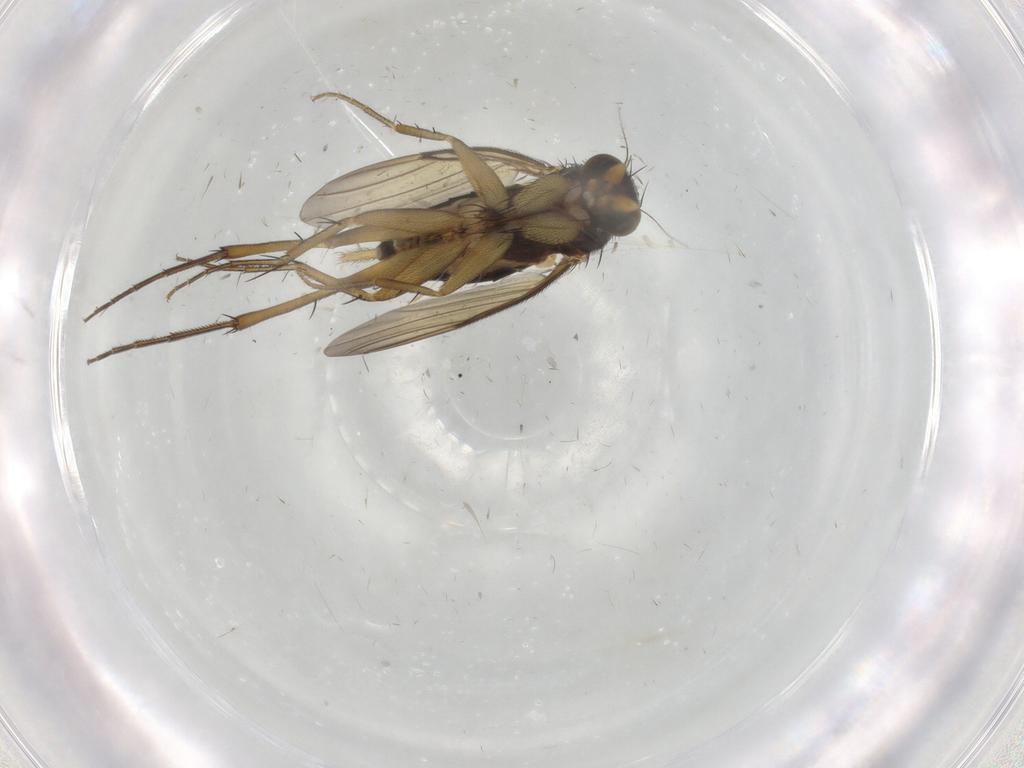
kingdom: Animalia
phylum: Arthropoda
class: Insecta
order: Diptera
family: Phoridae
